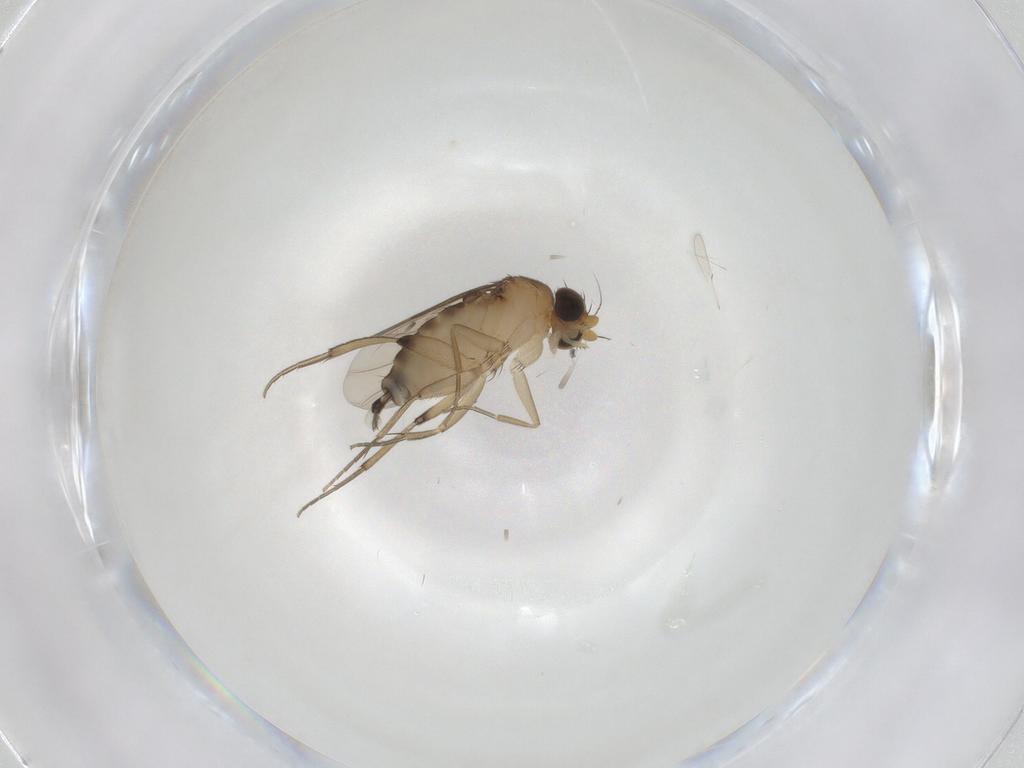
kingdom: Animalia
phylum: Arthropoda
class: Insecta
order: Diptera
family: Phoridae
